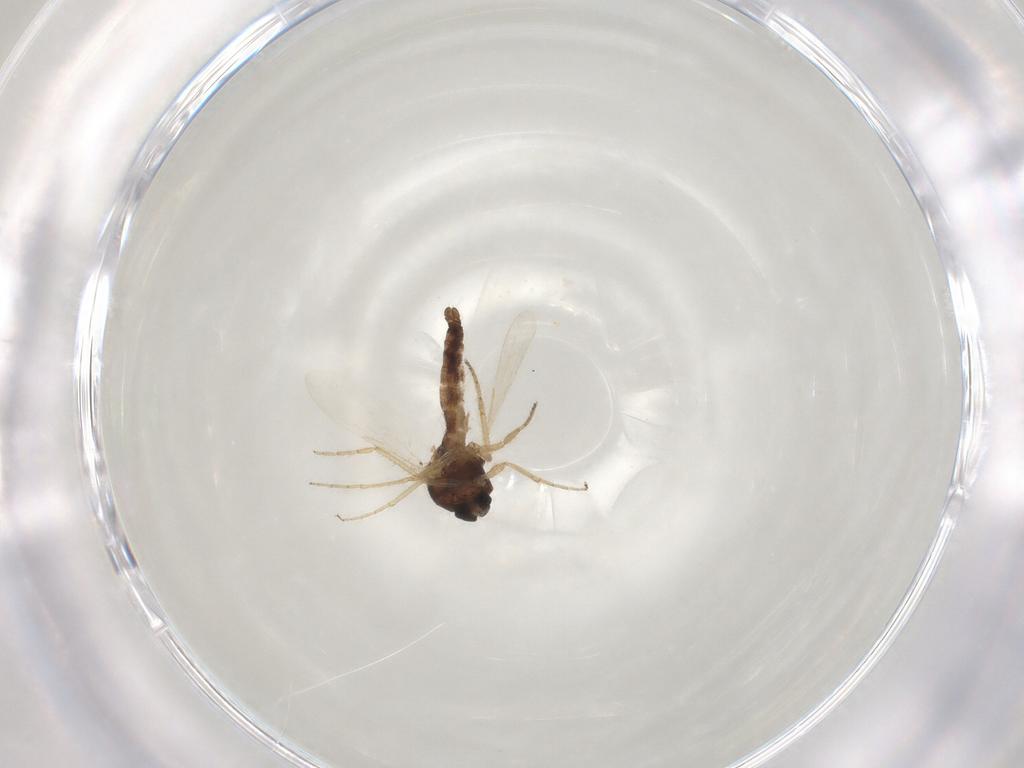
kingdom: Animalia
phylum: Arthropoda
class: Insecta
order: Diptera
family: Ceratopogonidae
